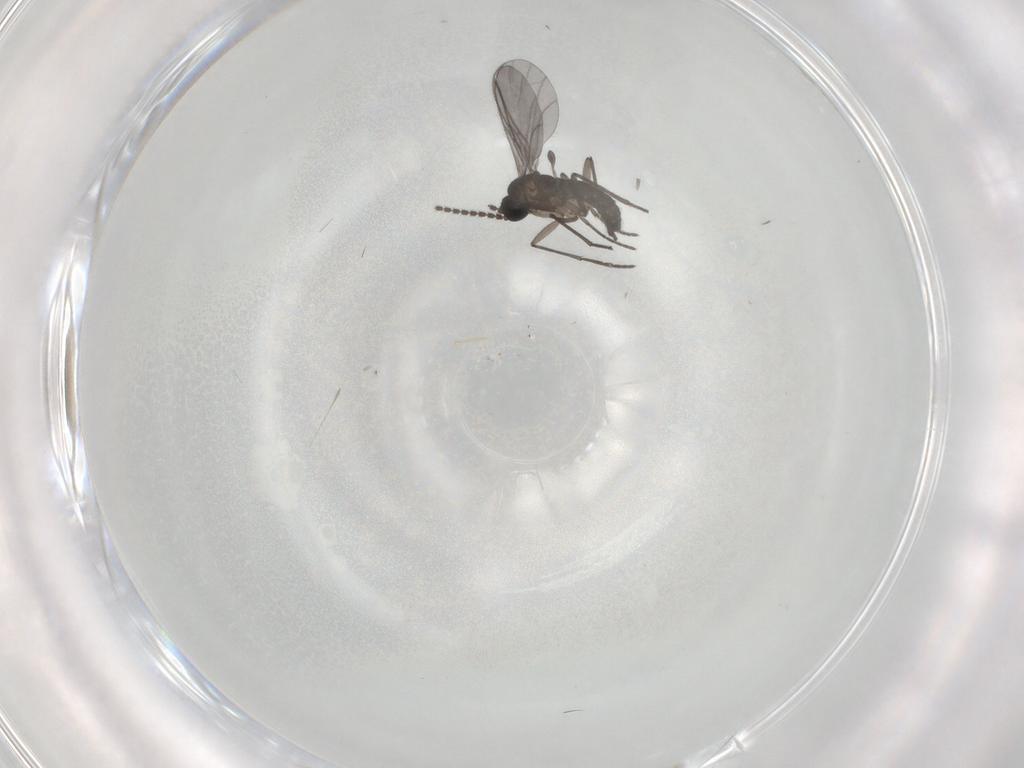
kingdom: Animalia
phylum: Arthropoda
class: Insecta
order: Diptera
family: Sciaridae
